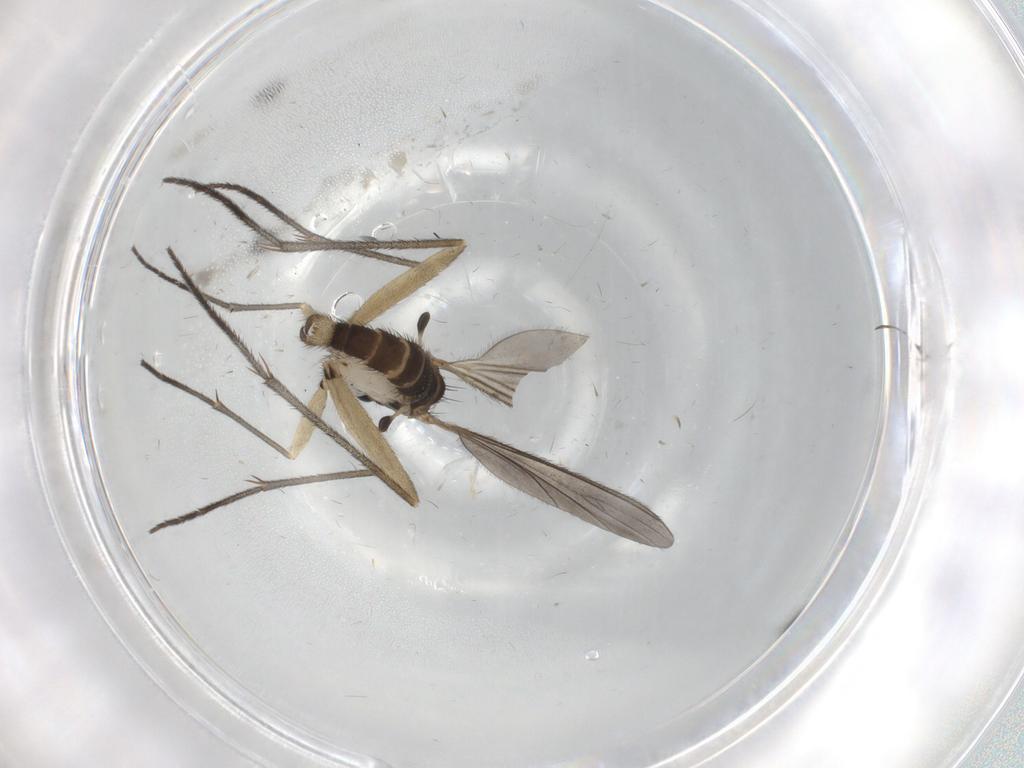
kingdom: Animalia
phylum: Arthropoda
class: Insecta
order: Diptera
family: Sciaridae
